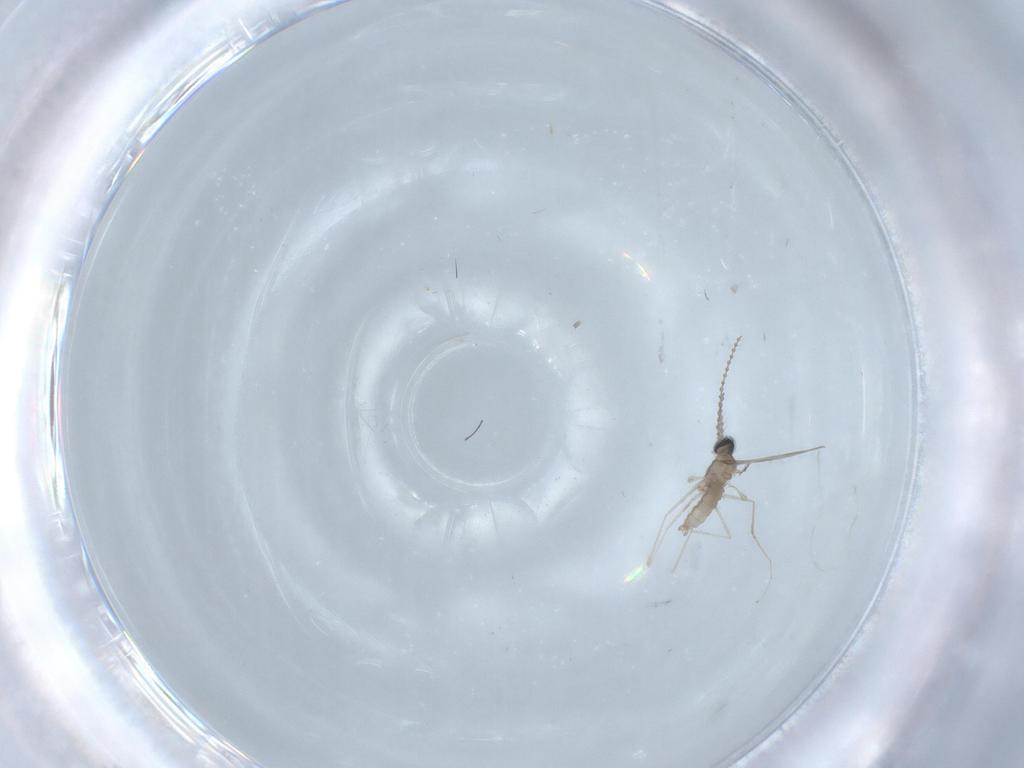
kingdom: Animalia
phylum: Arthropoda
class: Insecta
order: Diptera
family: Cecidomyiidae
